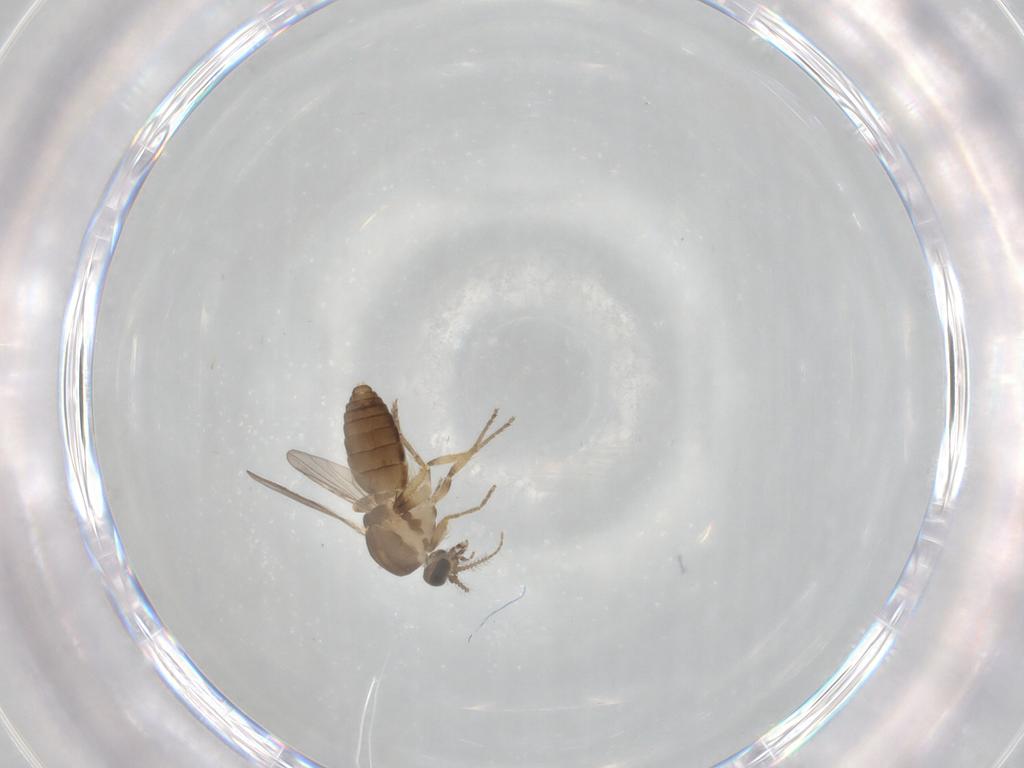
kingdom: Animalia
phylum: Arthropoda
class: Insecta
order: Diptera
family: Ceratopogonidae
